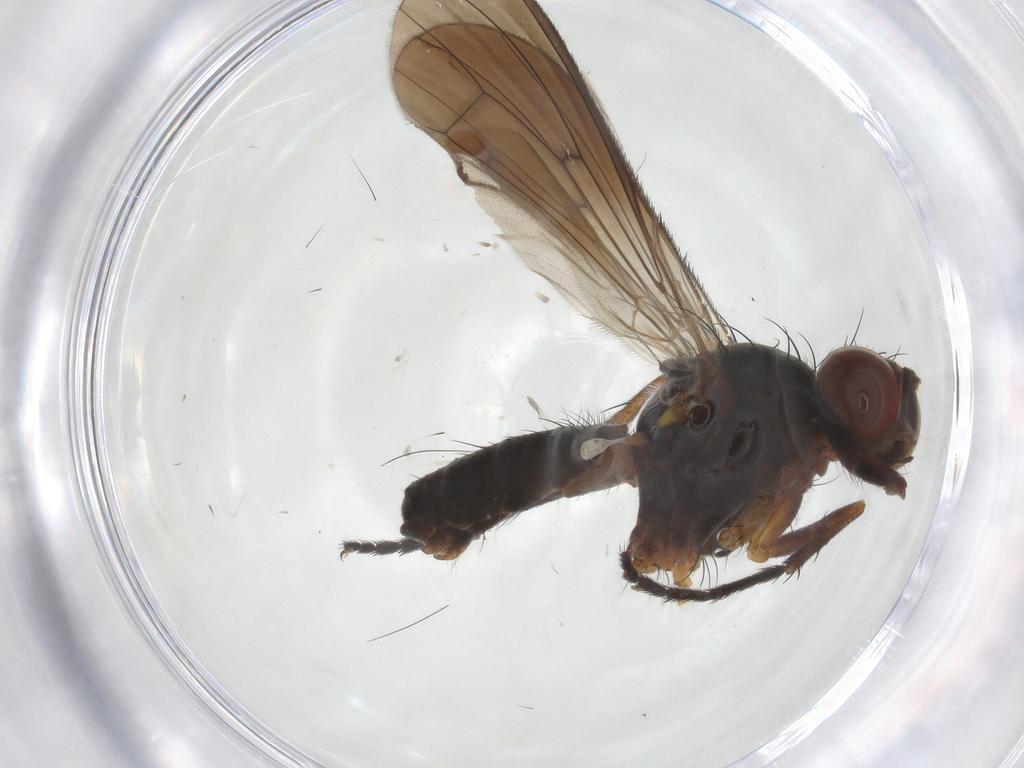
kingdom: Animalia
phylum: Arthropoda
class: Insecta
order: Diptera
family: Anthomyiidae
